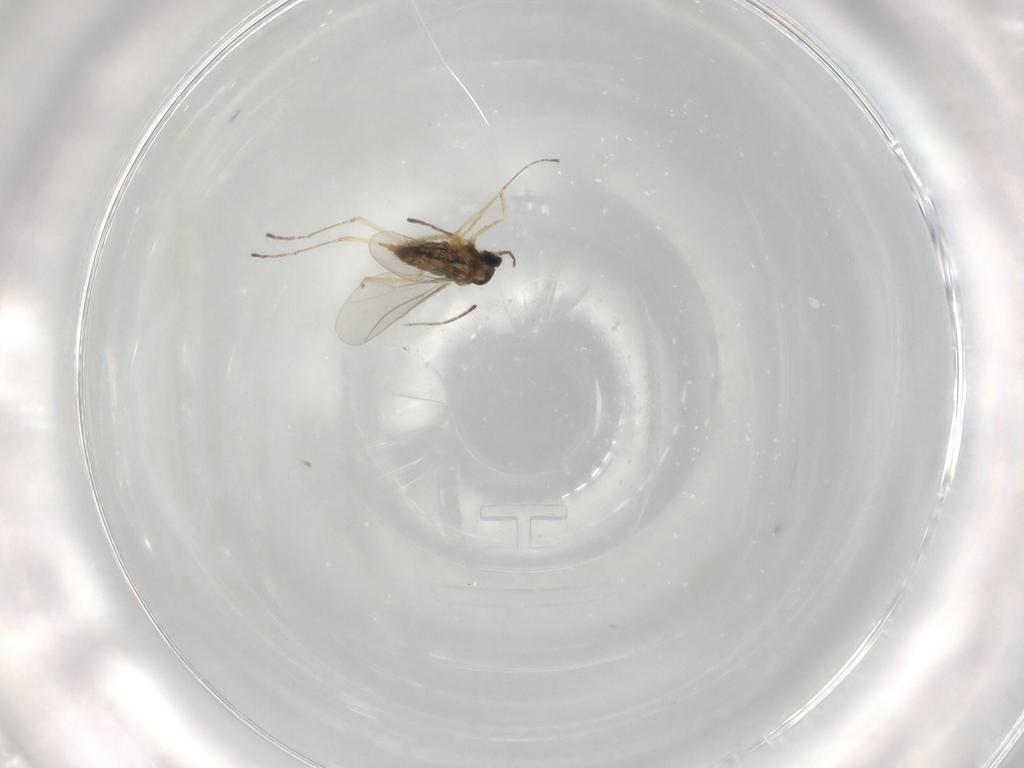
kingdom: Animalia
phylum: Arthropoda
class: Insecta
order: Diptera
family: Cecidomyiidae
